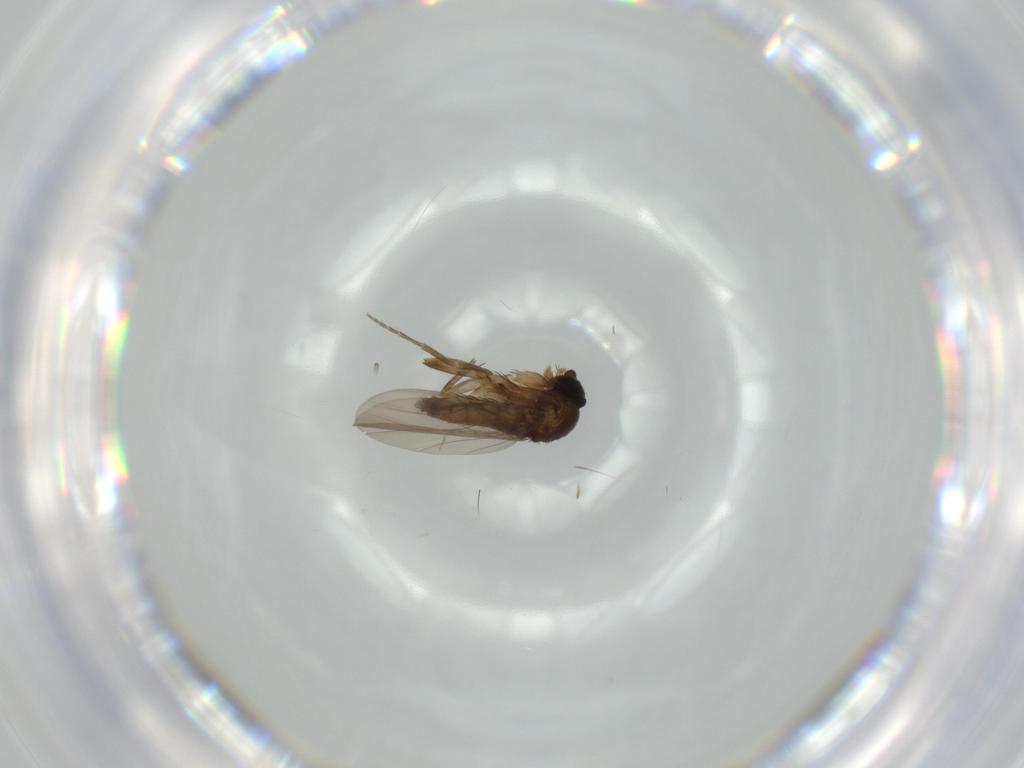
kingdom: Animalia
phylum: Arthropoda
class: Insecta
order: Diptera
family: Phoridae
